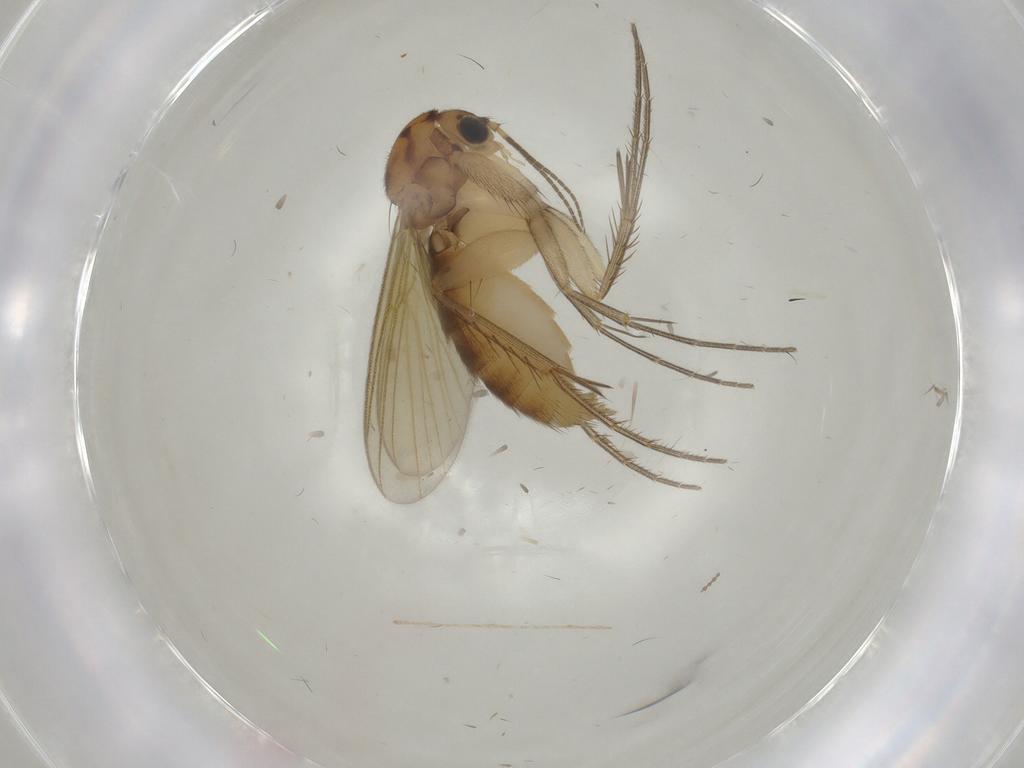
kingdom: Animalia
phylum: Arthropoda
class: Insecta
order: Diptera
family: Mycetophilidae
